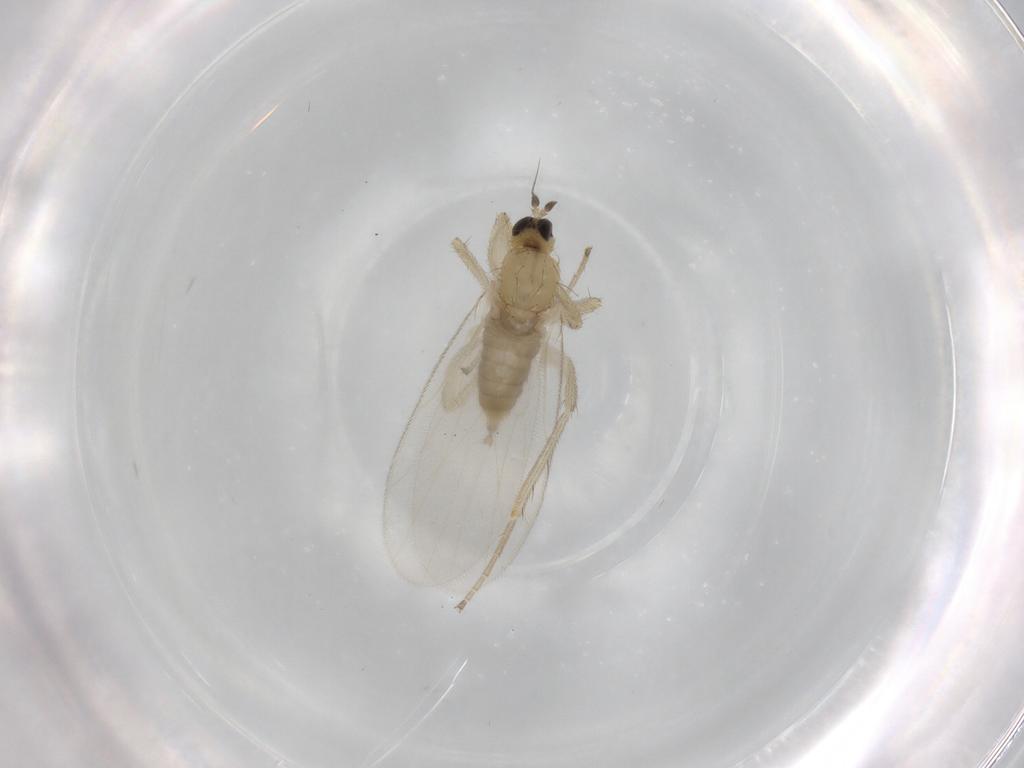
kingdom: Animalia
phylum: Arthropoda
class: Insecta
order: Diptera
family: Hybotidae
